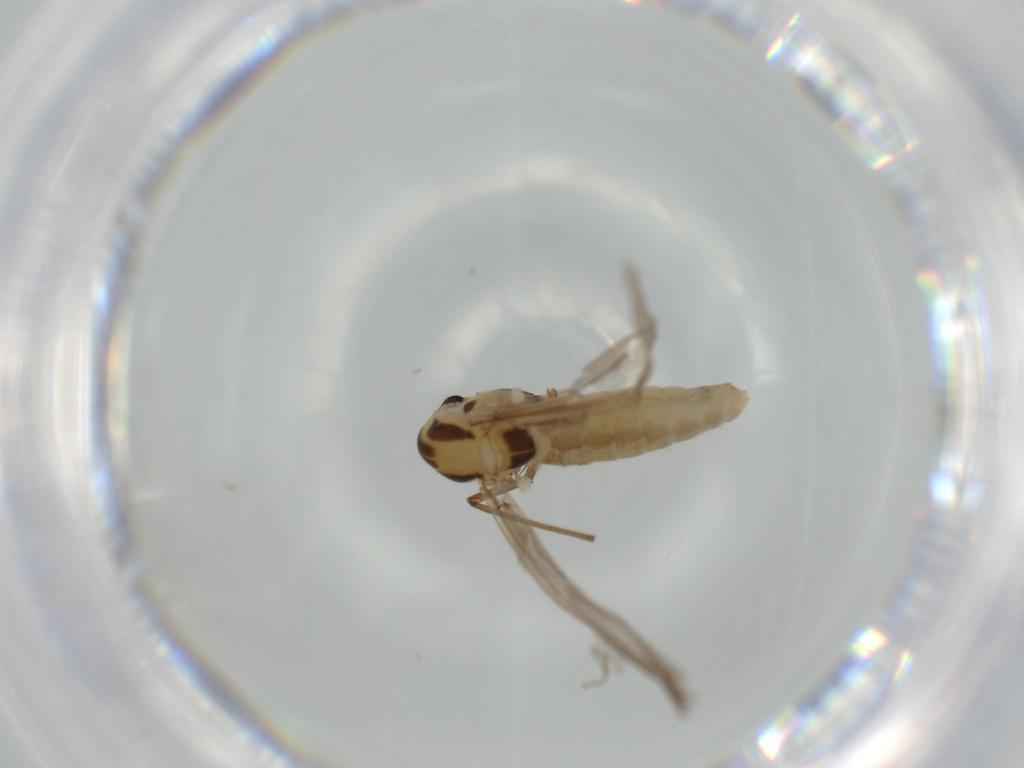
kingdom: Animalia
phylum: Arthropoda
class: Insecta
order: Diptera
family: Chironomidae
